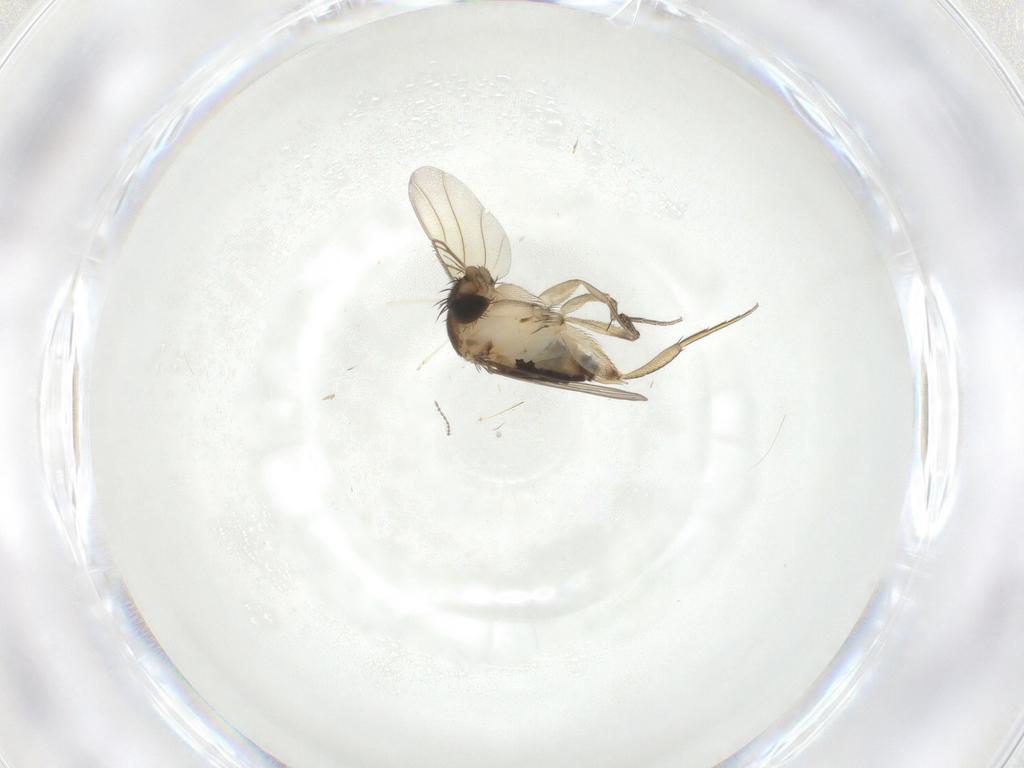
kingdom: Animalia
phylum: Arthropoda
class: Insecta
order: Diptera
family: Phoridae
